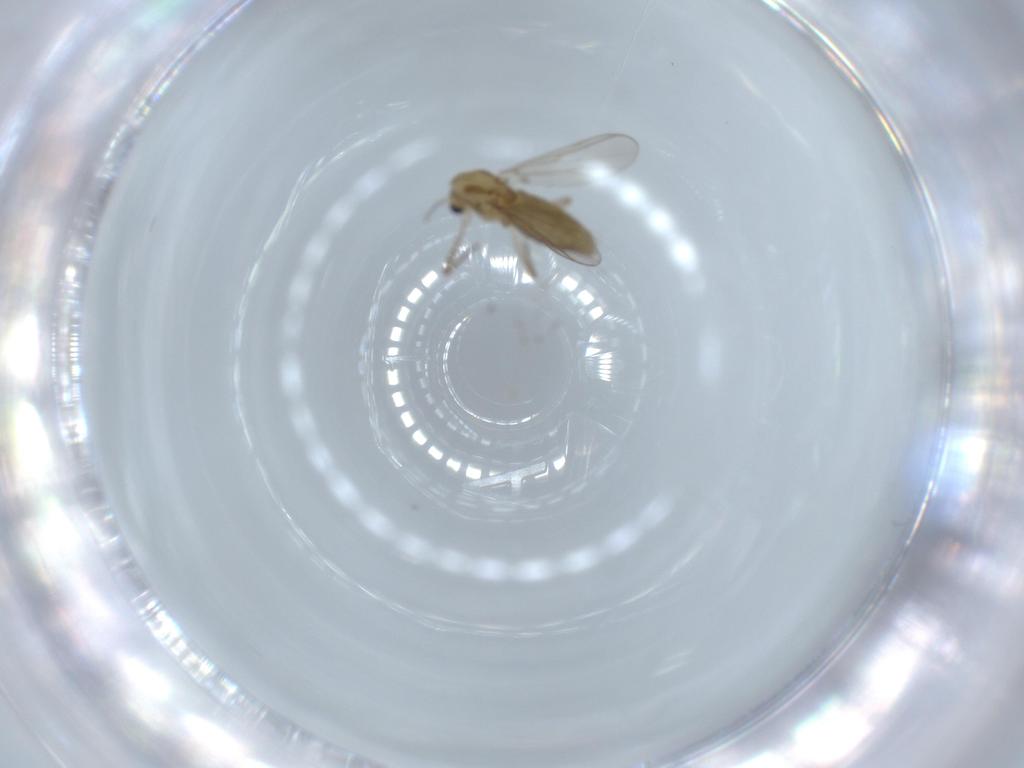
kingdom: Animalia
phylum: Arthropoda
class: Insecta
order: Diptera
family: Chironomidae
